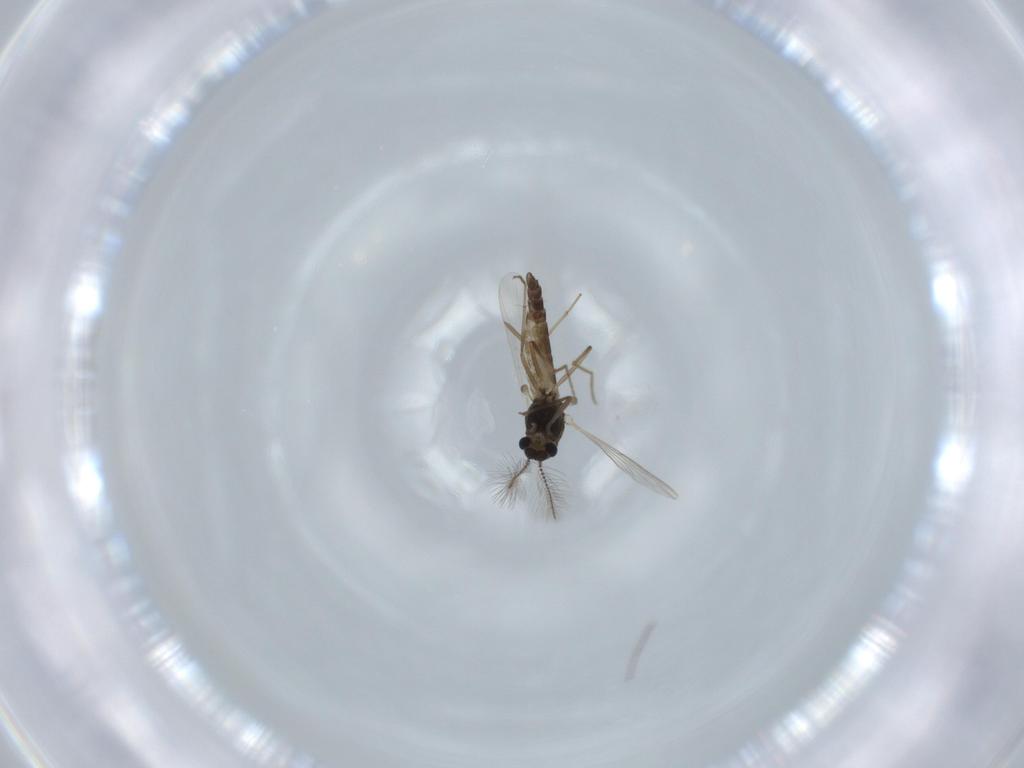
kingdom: Animalia
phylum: Arthropoda
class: Insecta
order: Diptera
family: Chironomidae
